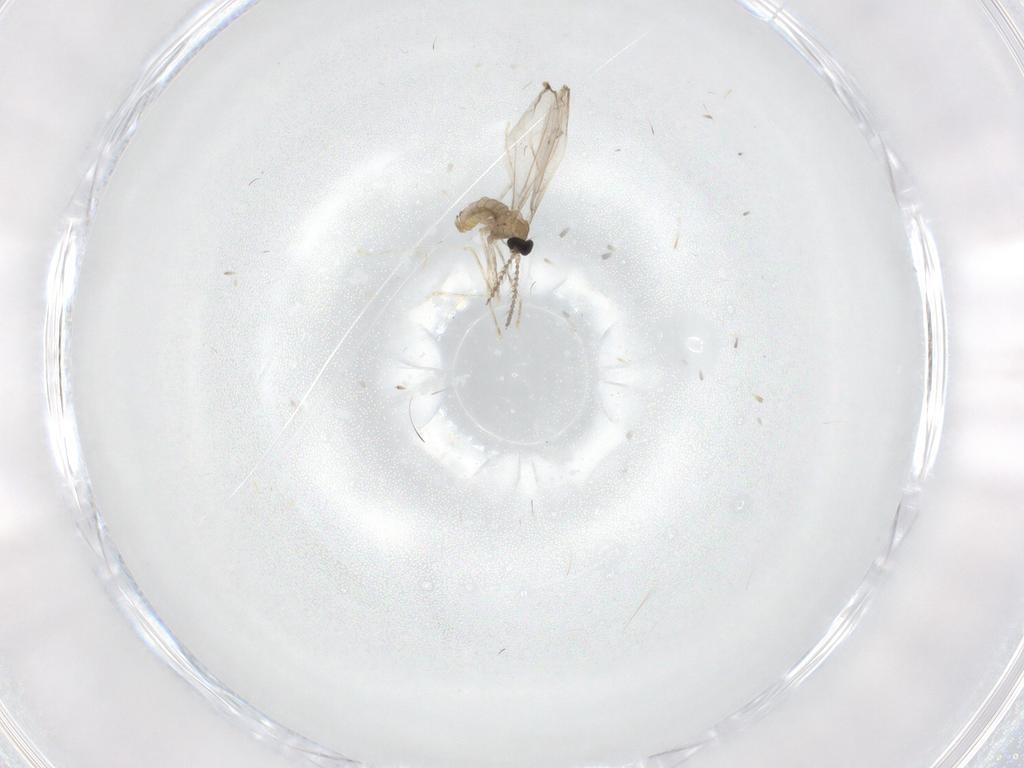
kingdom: Animalia
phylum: Arthropoda
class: Insecta
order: Diptera
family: Cecidomyiidae
